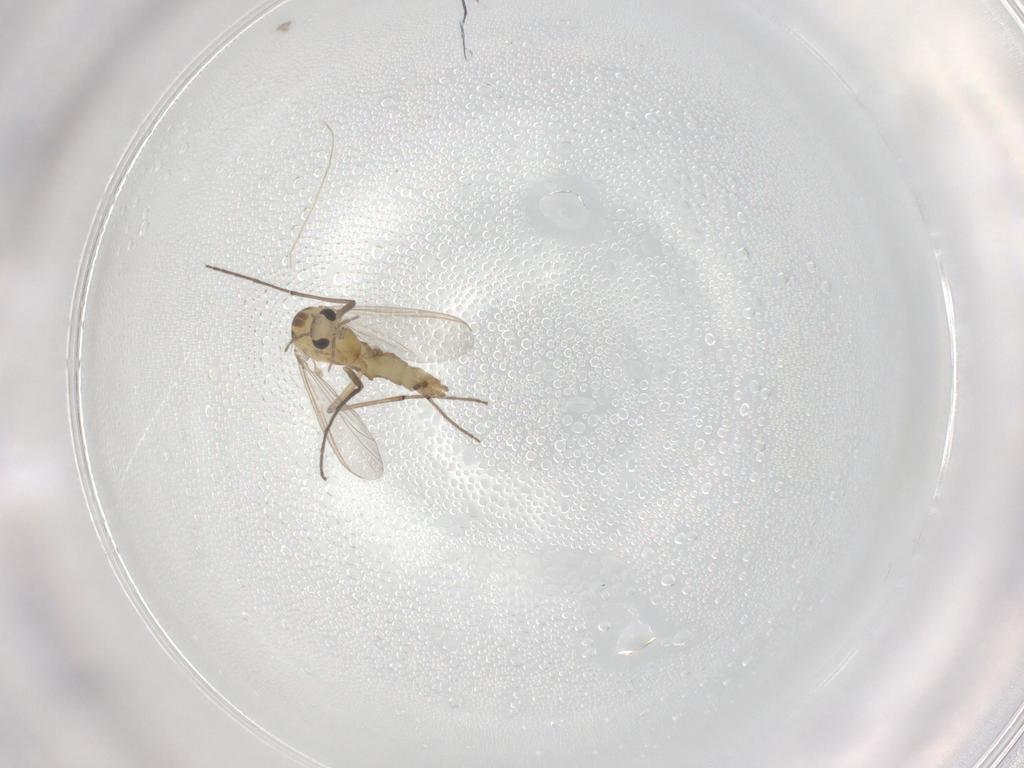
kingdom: Animalia
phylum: Arthropoda
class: Insecta
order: Diptera
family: Chironomidae
